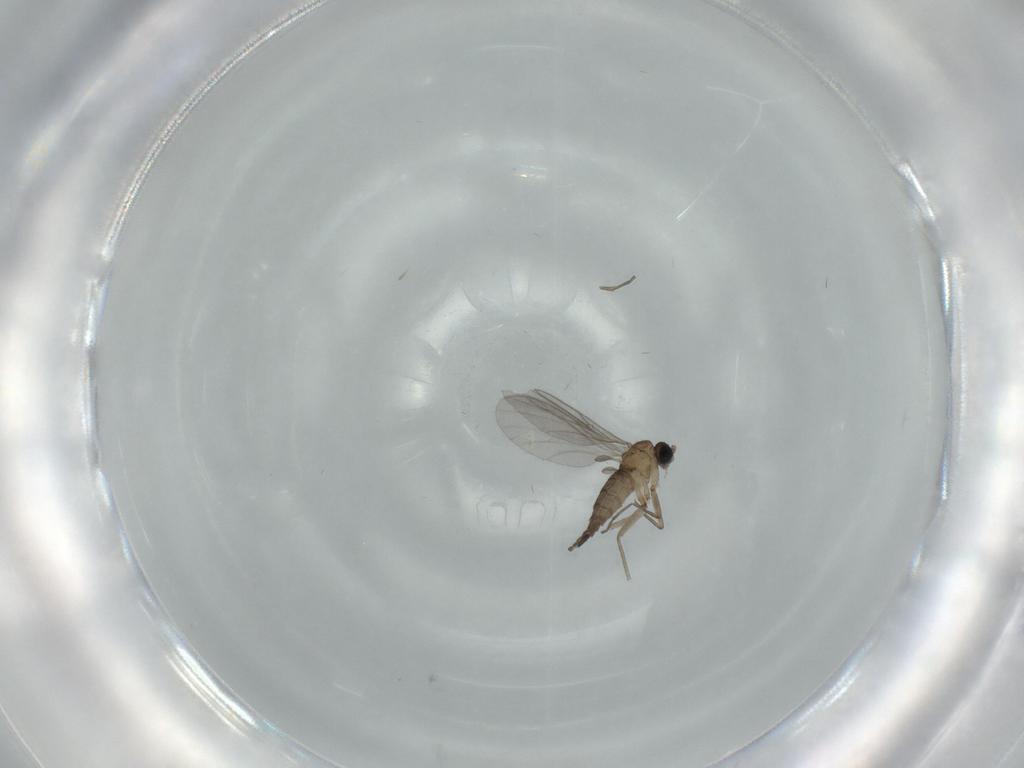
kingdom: Animalia
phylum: Arthropoda
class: Insecta
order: Diptera
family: Sciaridae
